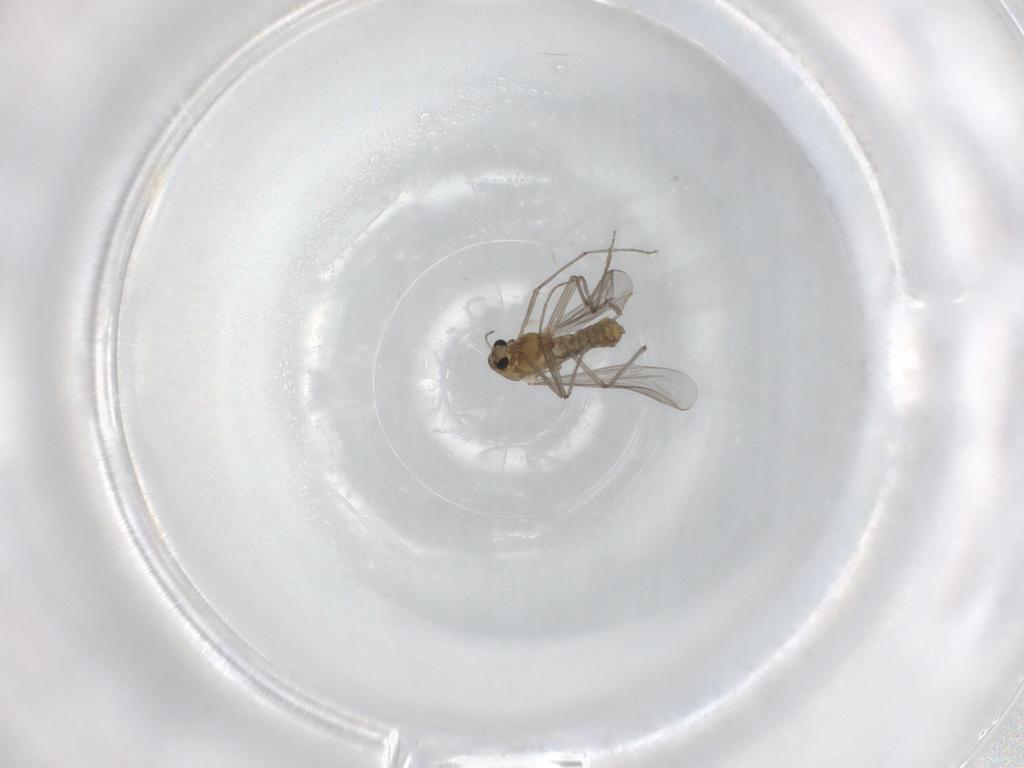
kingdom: Animalia
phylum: Arthropoda
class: Insecta
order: Diptera
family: Chironomidae
